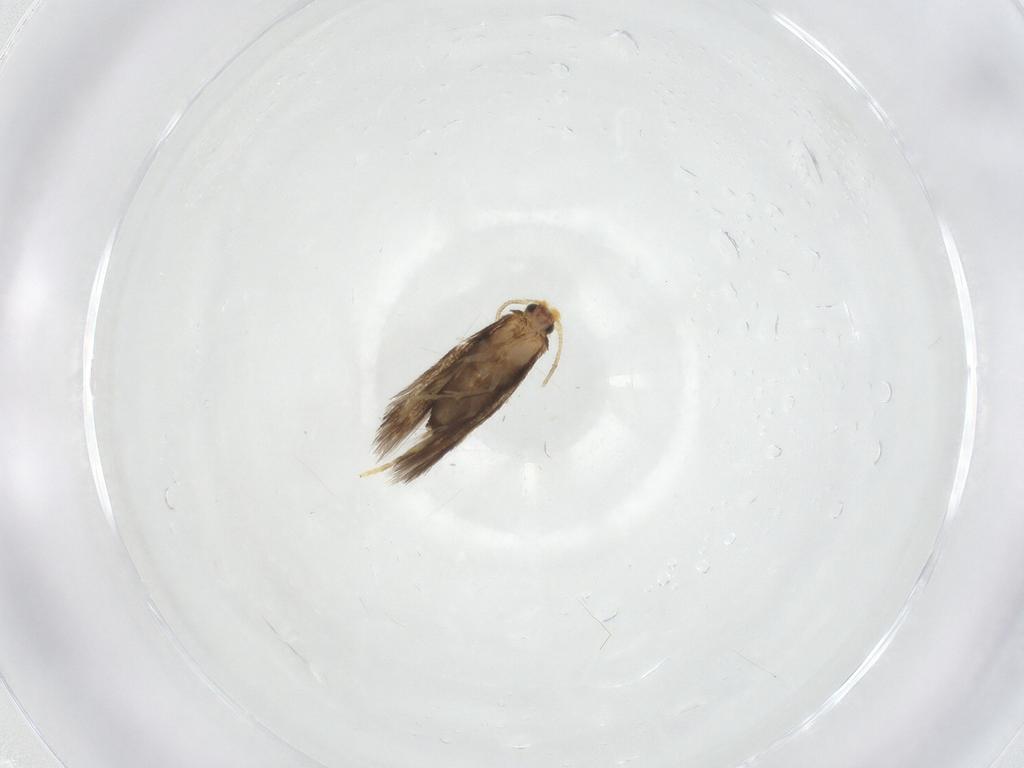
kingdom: Animalia
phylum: Arthropoda
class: Insecta
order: Lepidoptera
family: Nepticulidae
